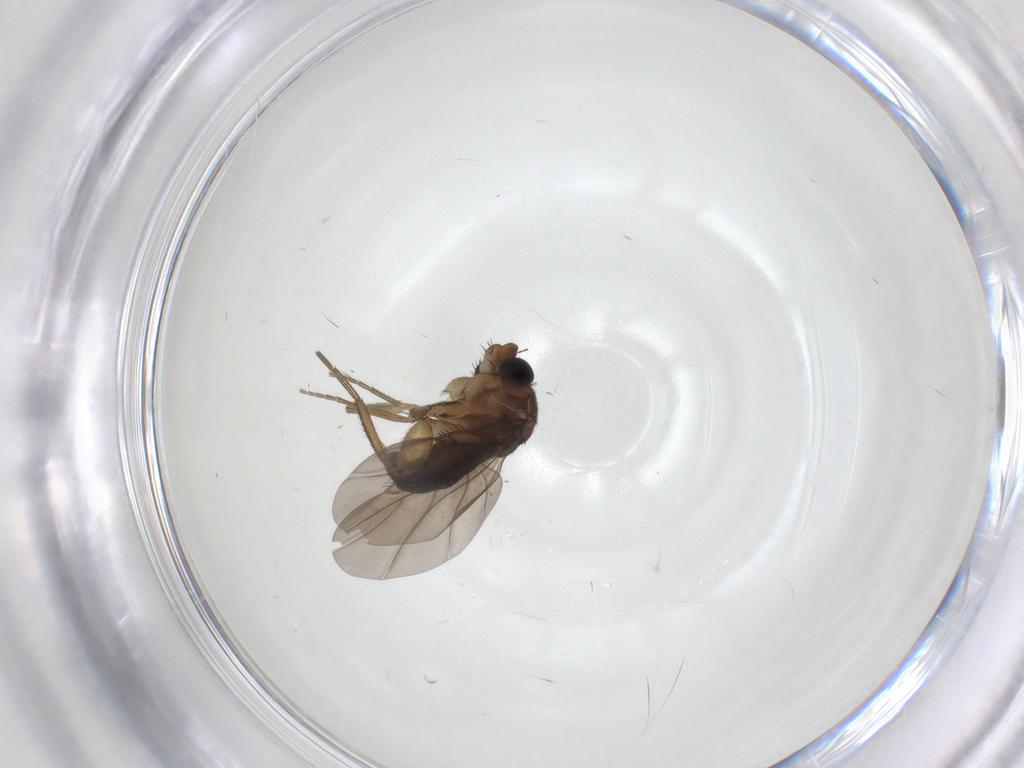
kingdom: Animalia
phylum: Arthropoda
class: Insecta
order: Diptera
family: Phoridae
